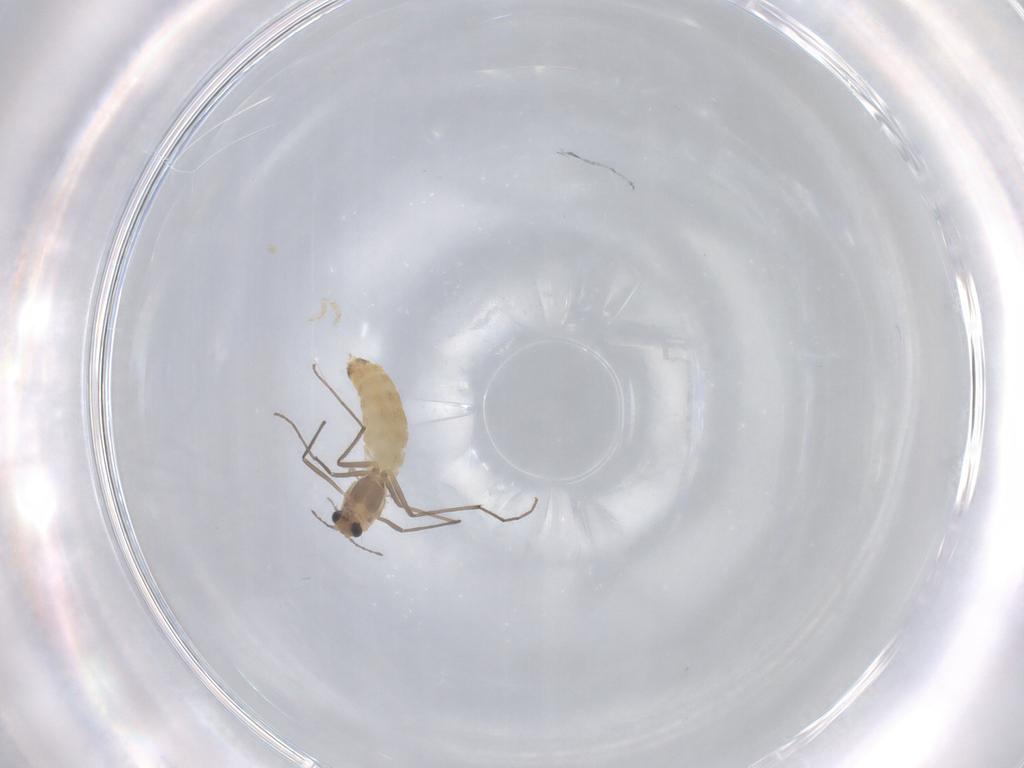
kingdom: Animalia
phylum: Arthropoda
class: Insecta
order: Diptera
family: Chironomidae
